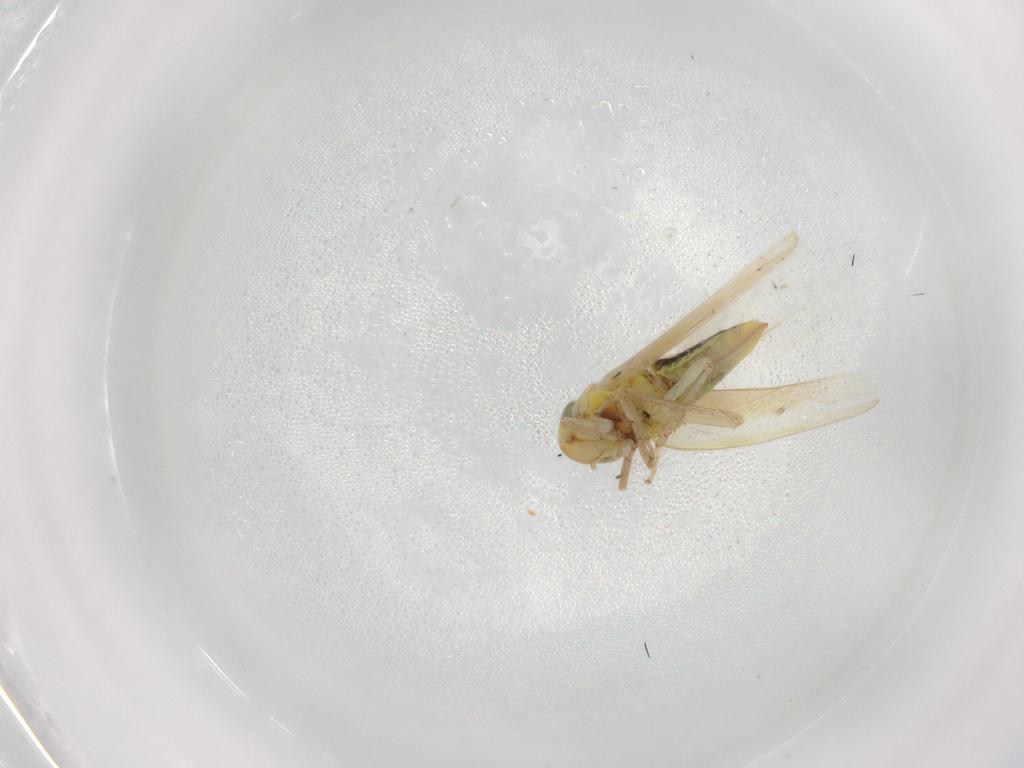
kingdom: Animalia
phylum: Arthropoda
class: Insecta
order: Hemiptera
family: Cicadellidae
